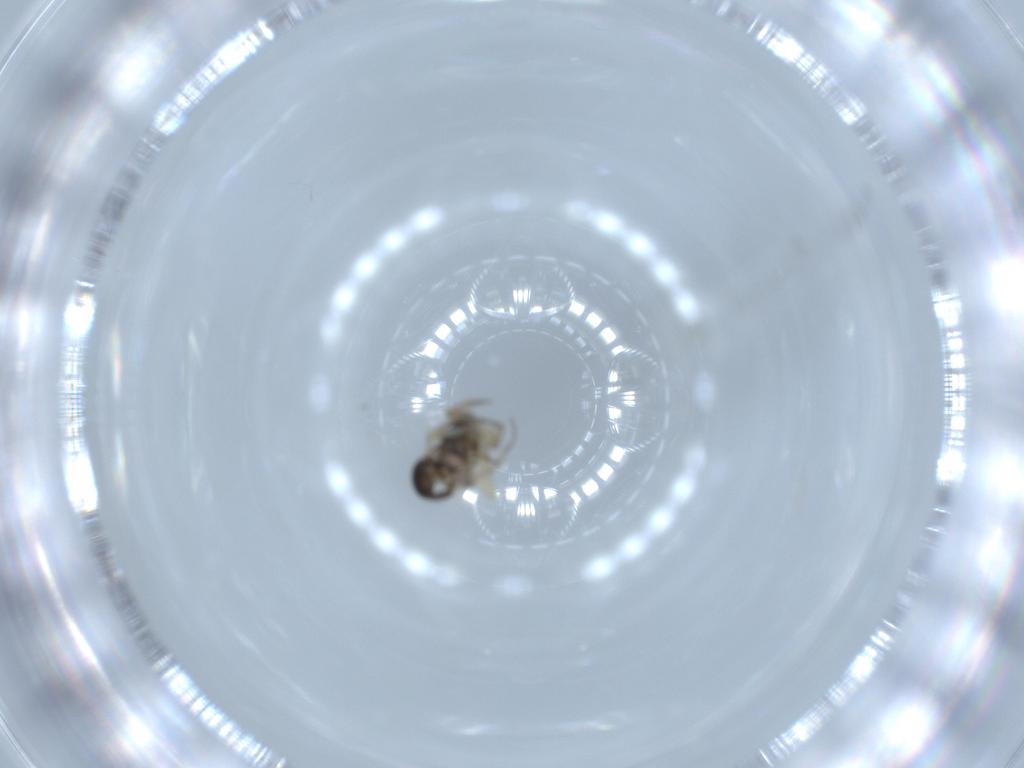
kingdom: Animalia
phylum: Arthropoda
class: Insecta
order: Diptera
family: Phoridae
